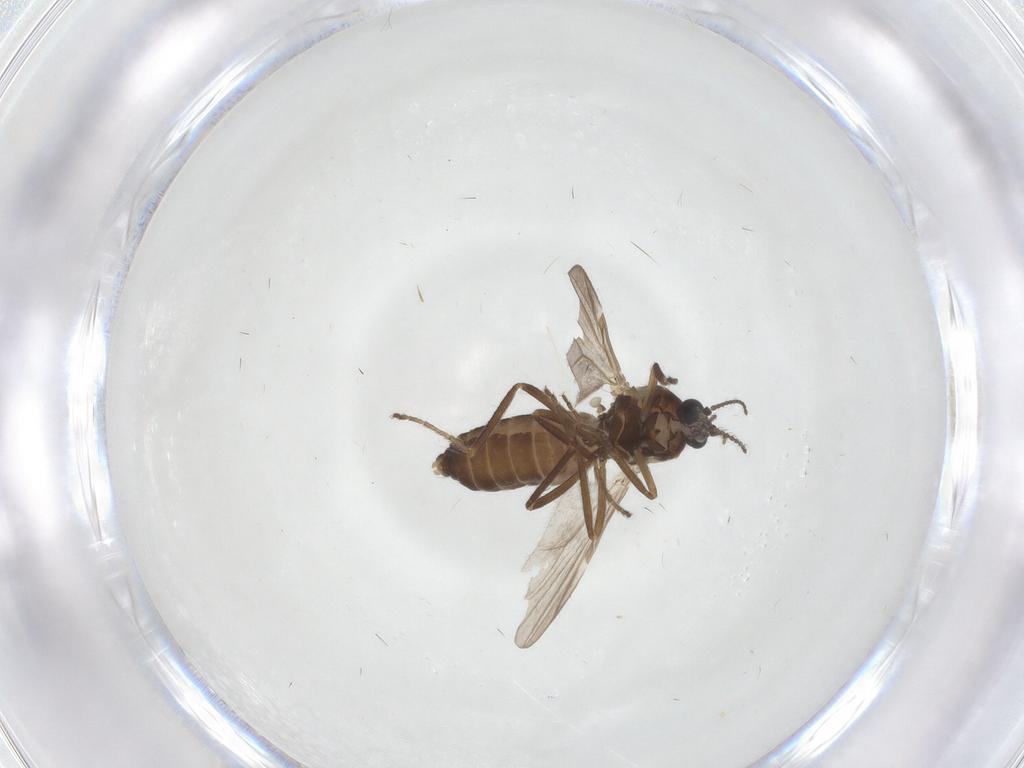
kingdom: Animalia
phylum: Arthropoda
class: Insecta
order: Diptera
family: Ceratopogonidae
